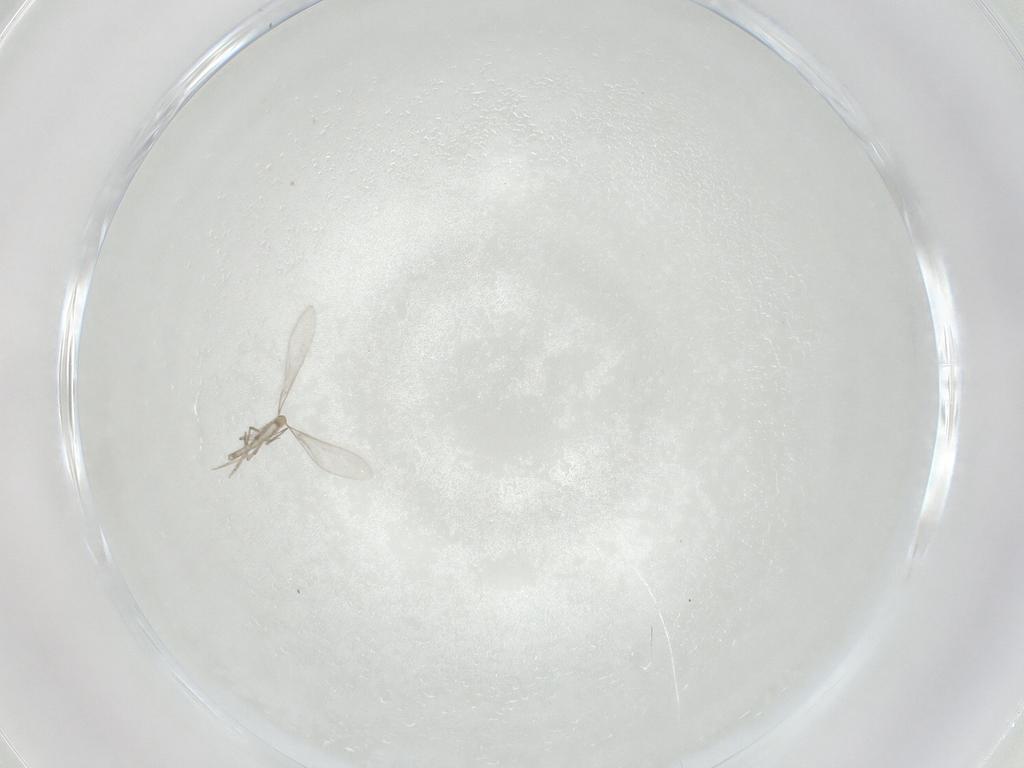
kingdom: Animalia
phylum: Arthropoda
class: Insecta
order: Diptera
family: Cecidomyiidae
